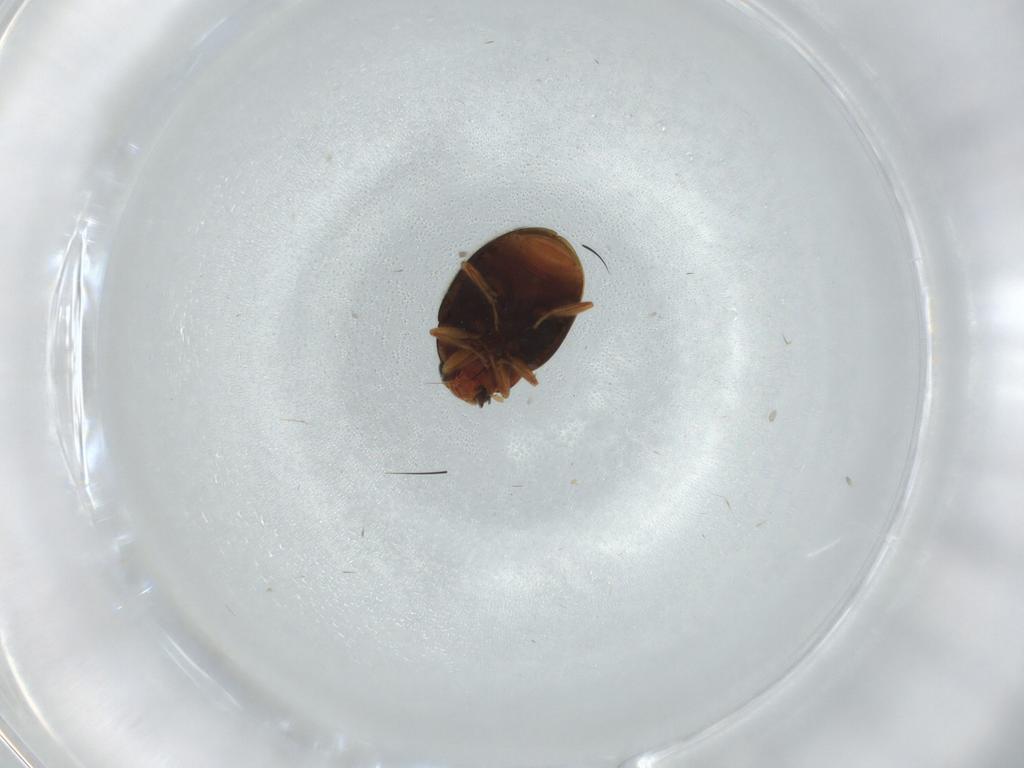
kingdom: Animalia
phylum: Arthropoda
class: Insecta
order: Coleoptera
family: Coccinellidae
